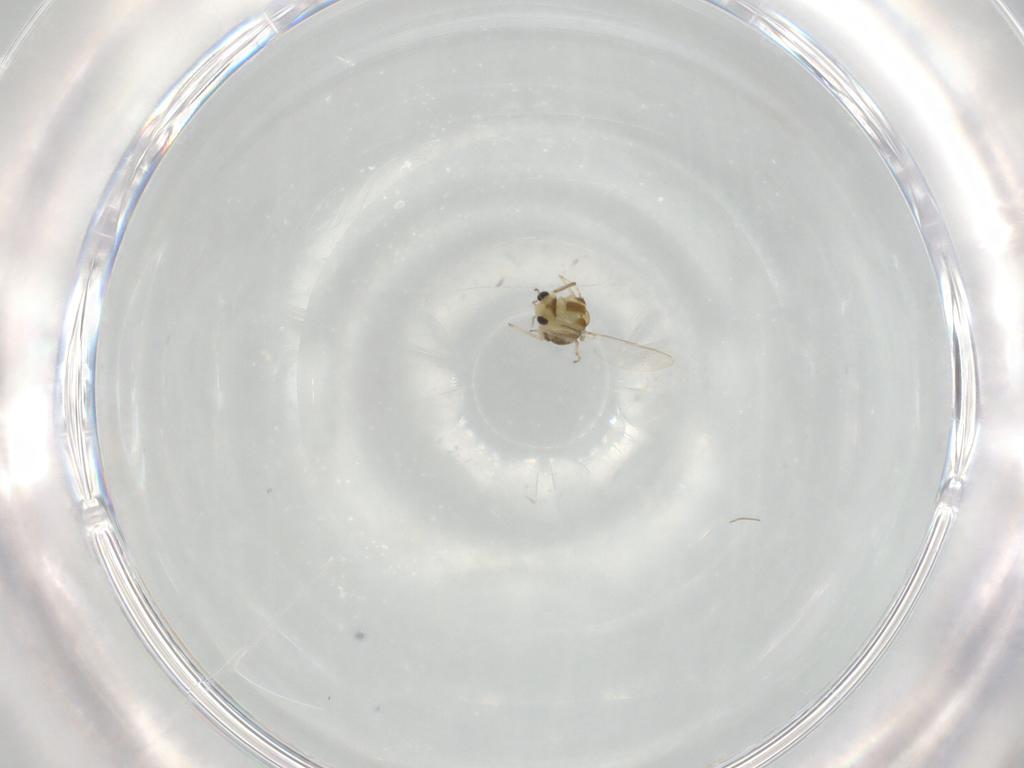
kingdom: Animalia
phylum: Arthropoda
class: Insecta
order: Diptera
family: Chironomidae
